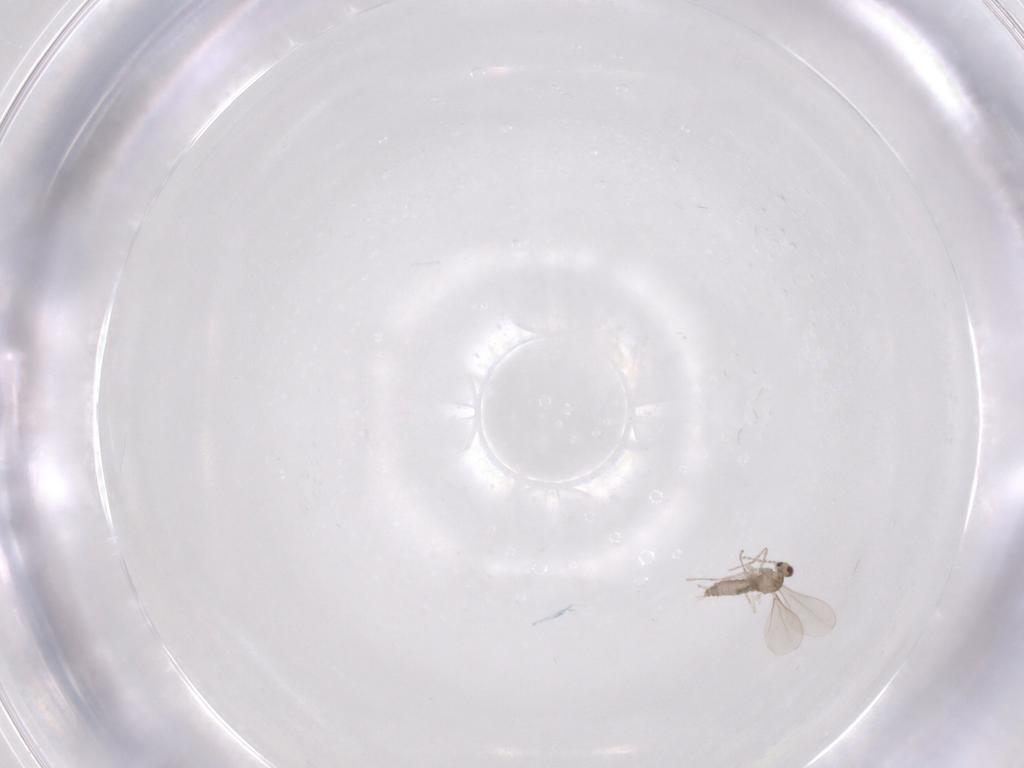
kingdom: Animalia
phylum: Arthropoda
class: Insecta
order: Diptera
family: Cecidomyiidae
